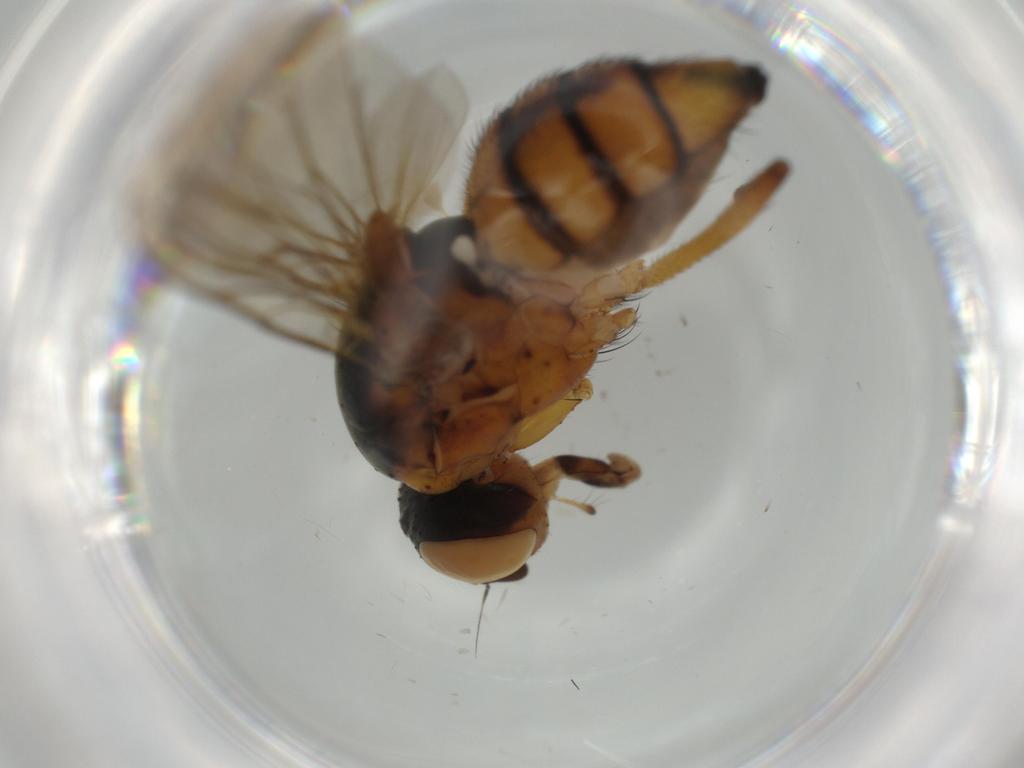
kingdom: Animalia
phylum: Arthropoda
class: Insecta
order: Diptera
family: Anthomyiidae
